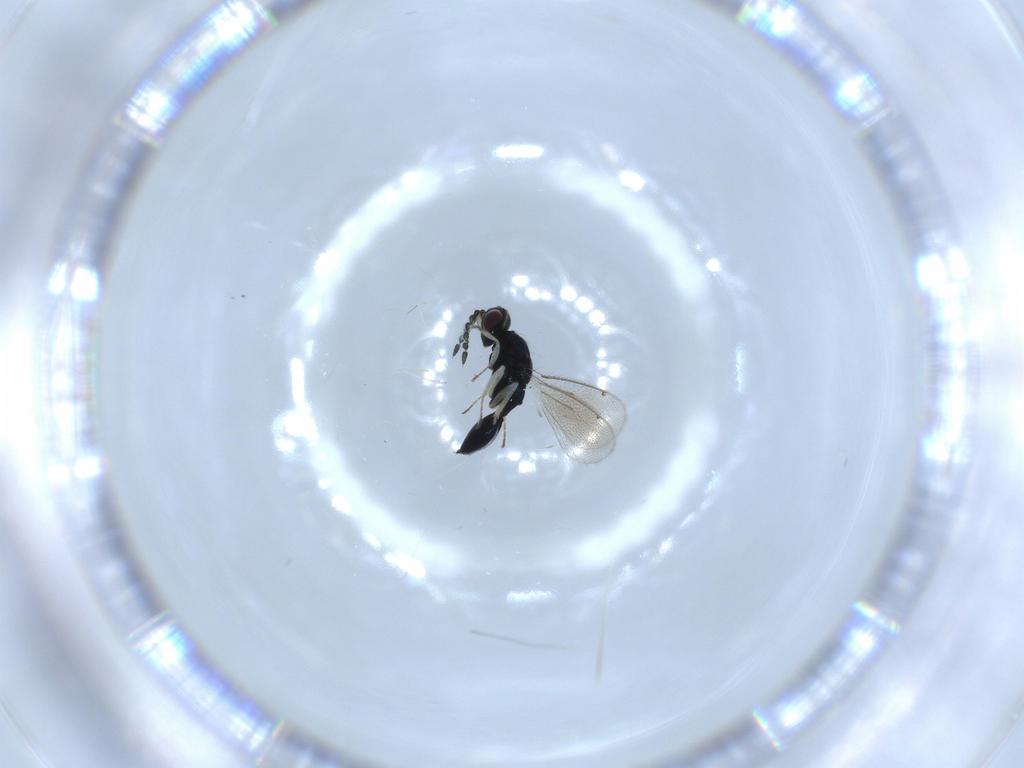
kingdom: Animalia
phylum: Arthropoda
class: Insecta
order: Hymenoptera
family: Eulophidae
